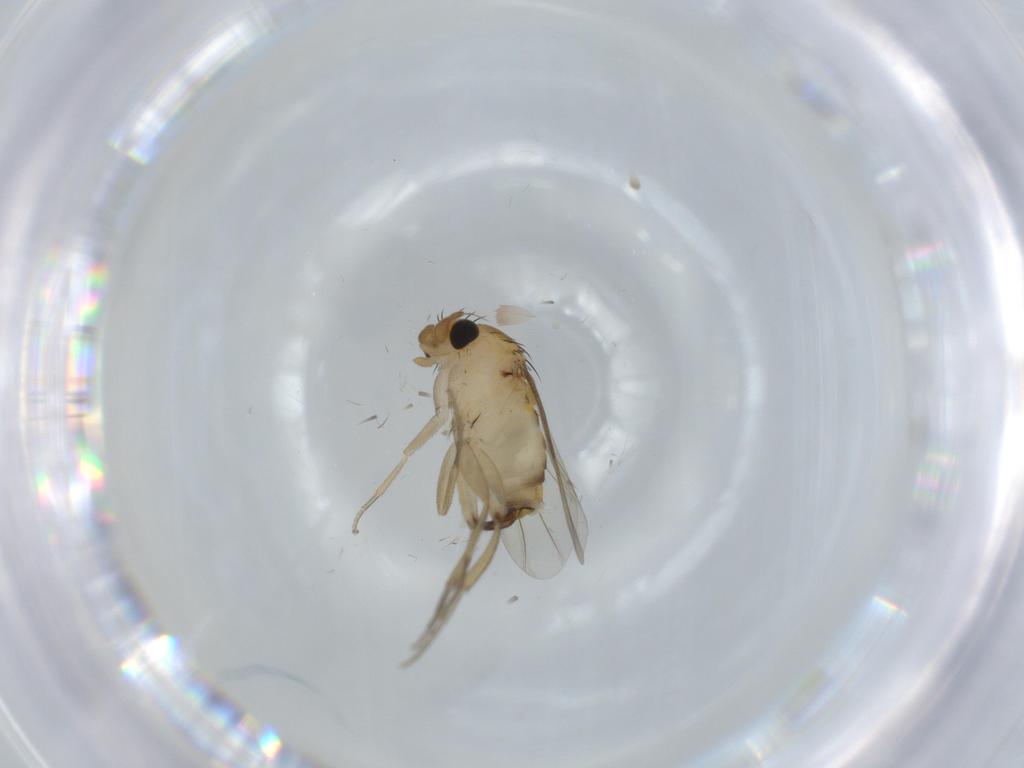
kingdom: Animalia
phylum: Arthropoda
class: Insecta
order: Diptera
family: Phoridae
